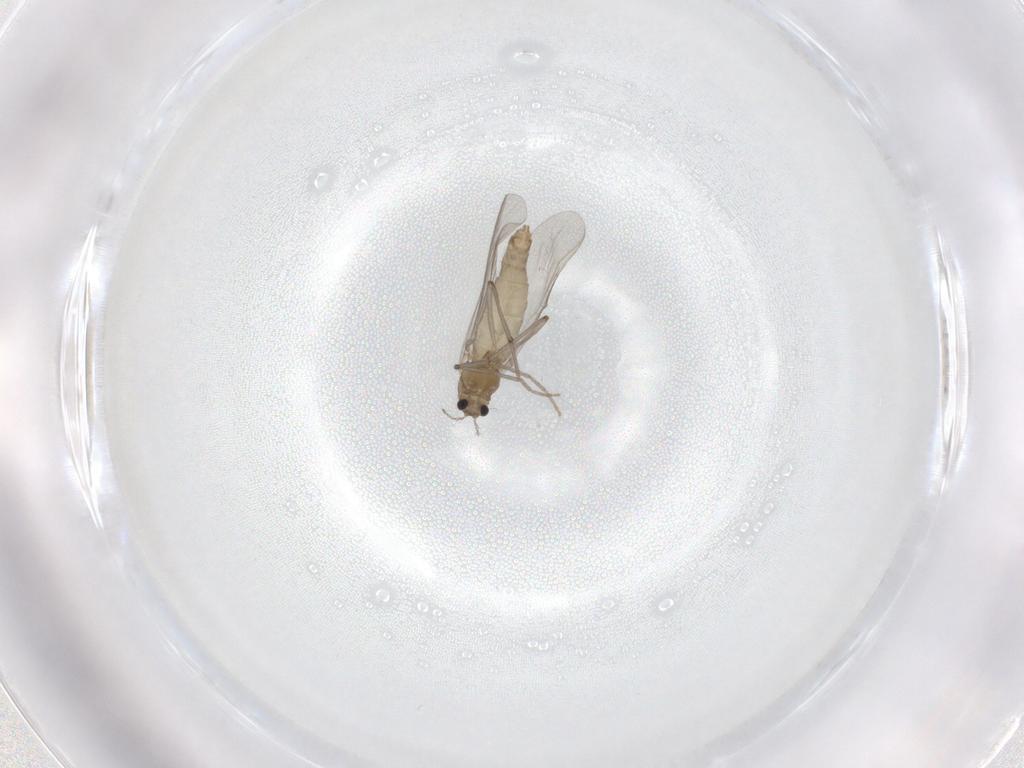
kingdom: Animalia
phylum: Arthropoda
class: Insecta
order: Diptera
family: Chironomidae
